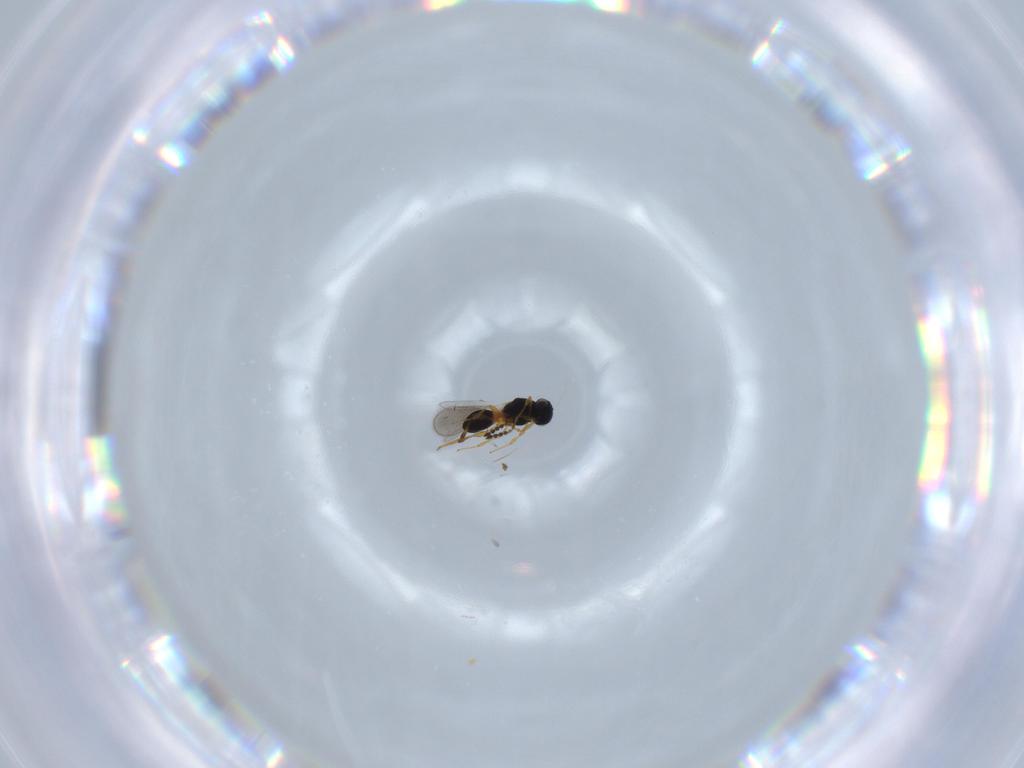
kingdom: Animalia
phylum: Arthropoda
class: Insecta
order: Hymenoptera
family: Platygastridae
